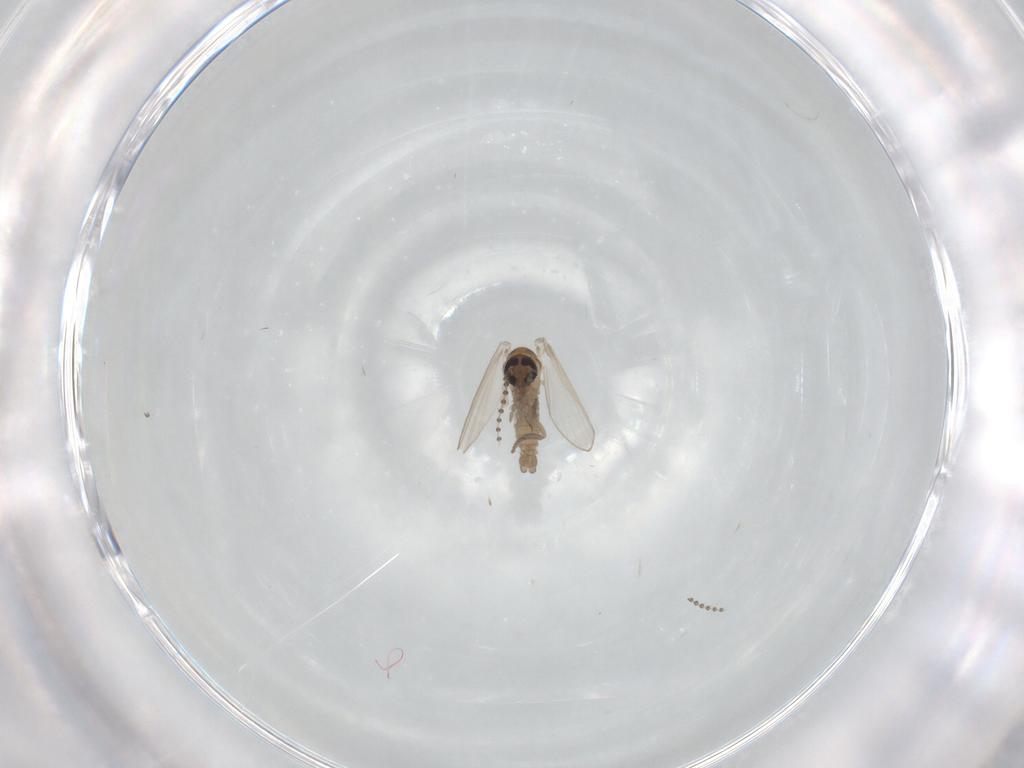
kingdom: Animalia
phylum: Arthropoda
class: Insecta
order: Diptera
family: Psychodidae
